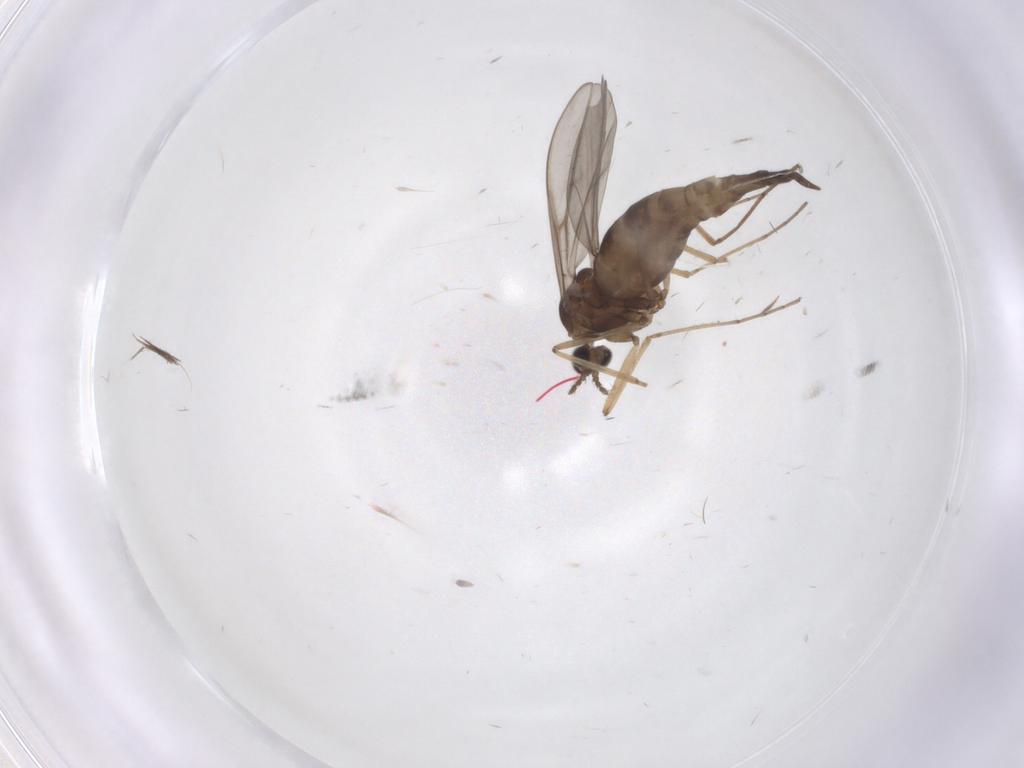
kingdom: Animalia
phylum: Arthropoda
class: Insecta
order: Diptera
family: Cecidomyiidae
